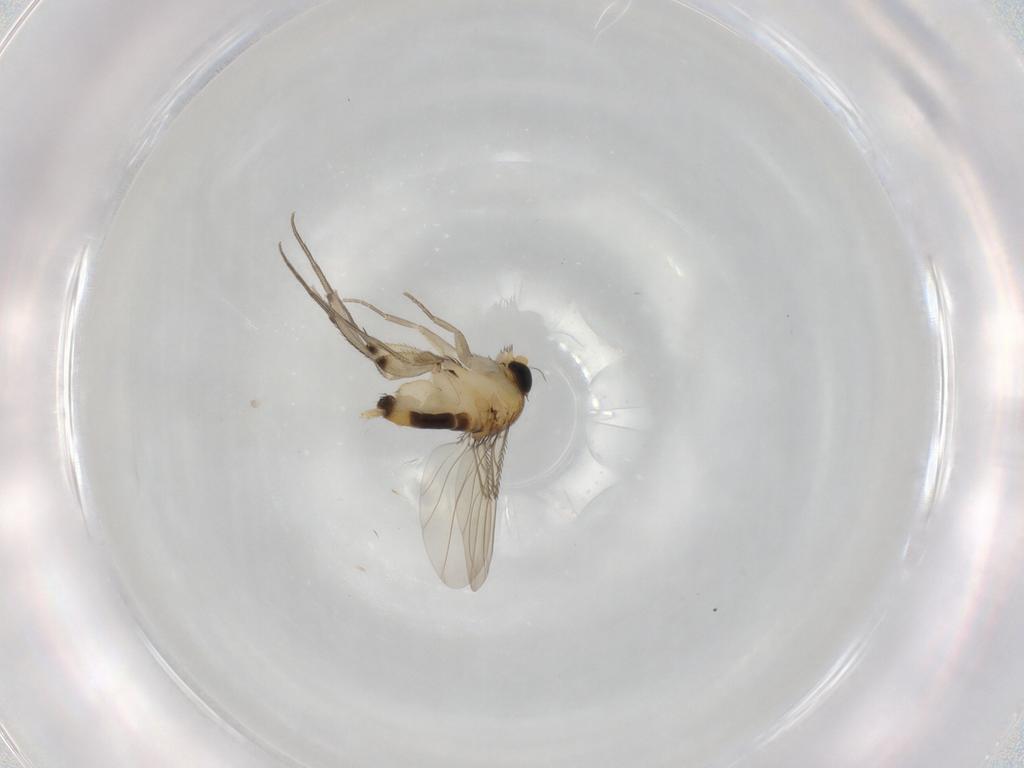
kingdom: Animalia
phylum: Arthropoda
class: Insecta
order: Diptera
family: Phoridae
